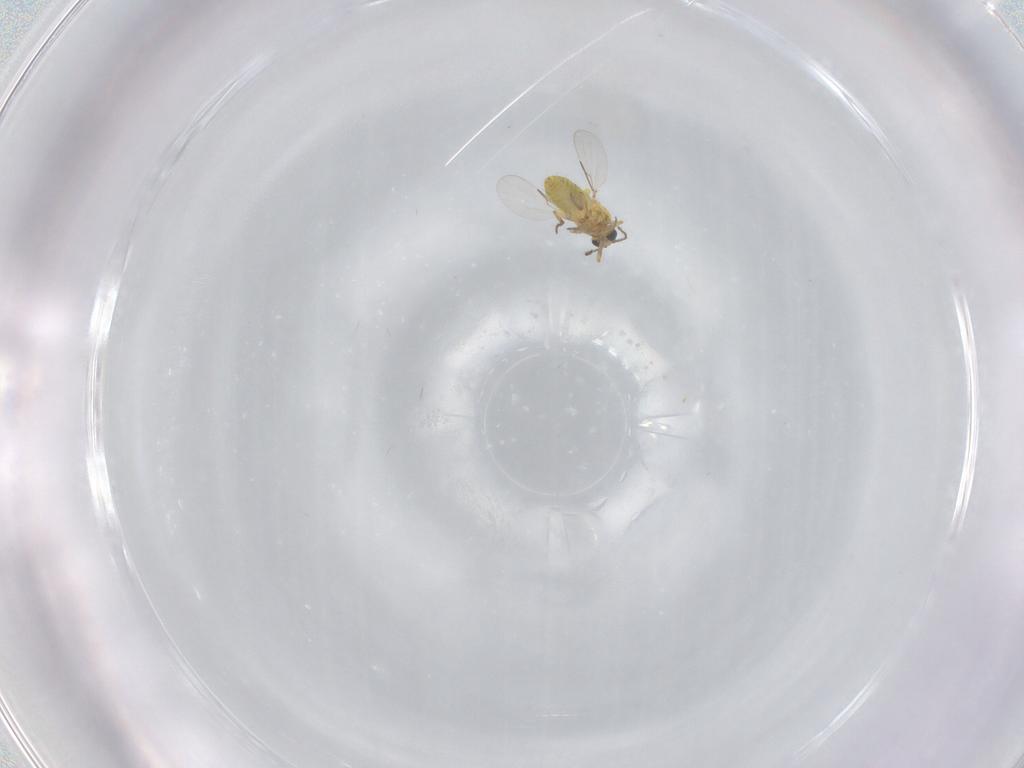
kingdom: Animalia
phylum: Arthropoda
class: Insecta
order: Diptera
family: Ceratopogonidae
